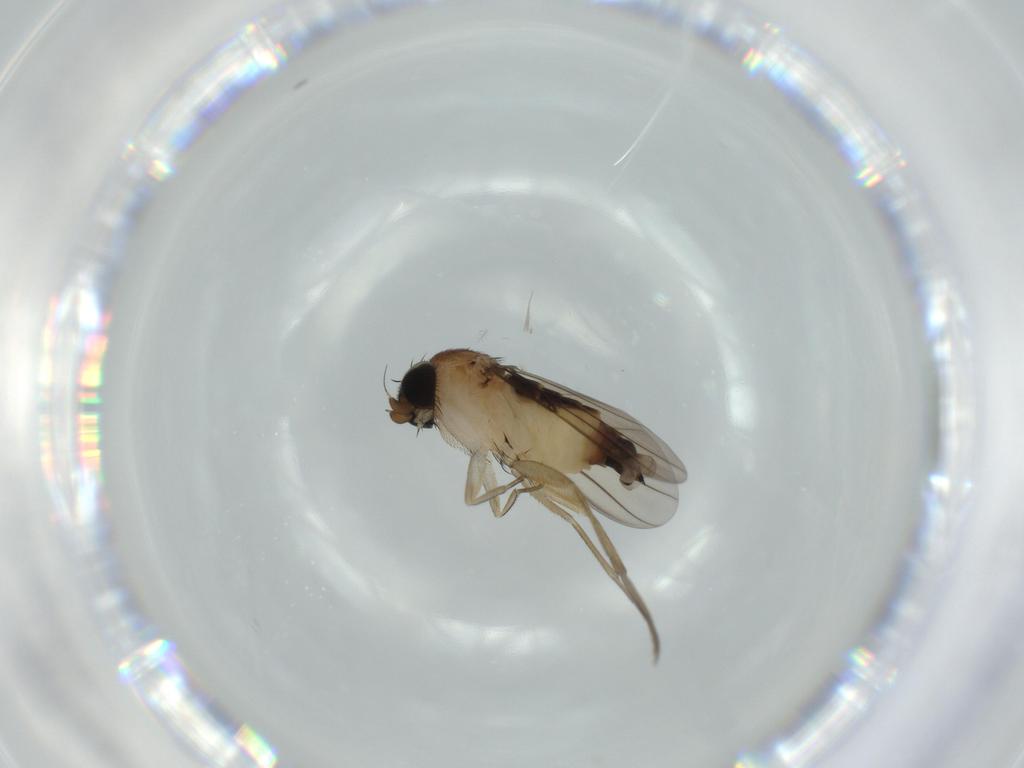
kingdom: Animalia
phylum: Arthropoda
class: Insecta
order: Diptera
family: Phoridae
